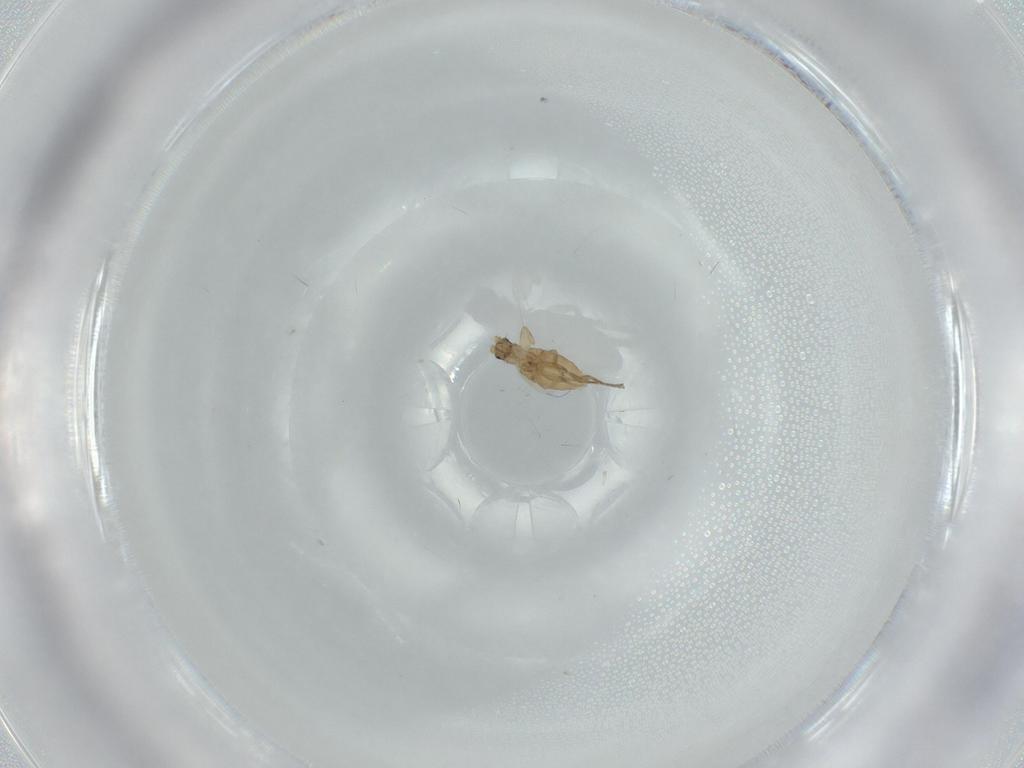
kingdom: Animalia
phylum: Arthropoda
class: Insecta
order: Diptera
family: Phoridae
